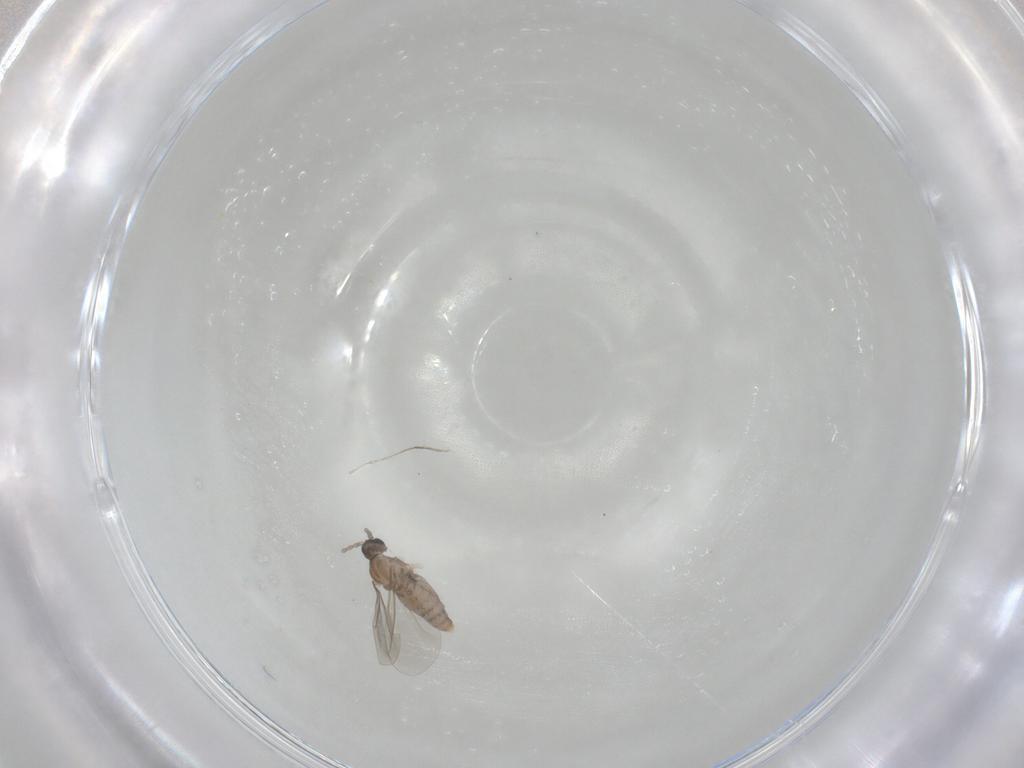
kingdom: Animalia
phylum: Arthropoda
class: Insecta
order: Diptera
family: Cecidomyiidae
